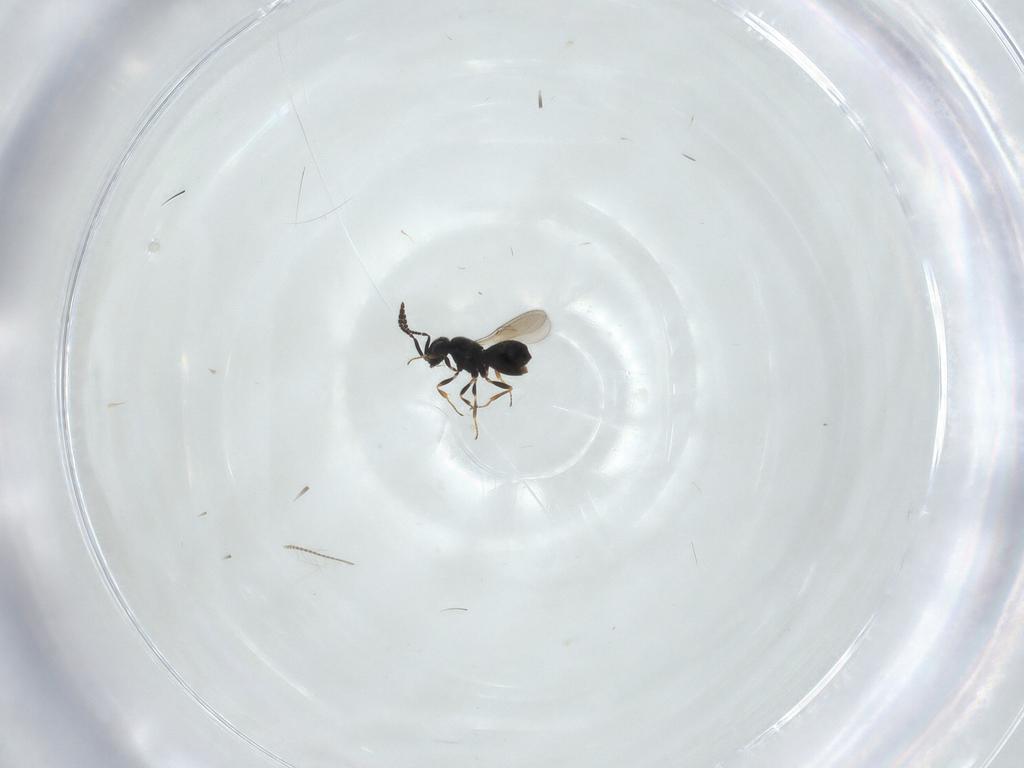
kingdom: Animalia
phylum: Arthropoda
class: Insecta
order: Hymenoptera
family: Scelionidae
